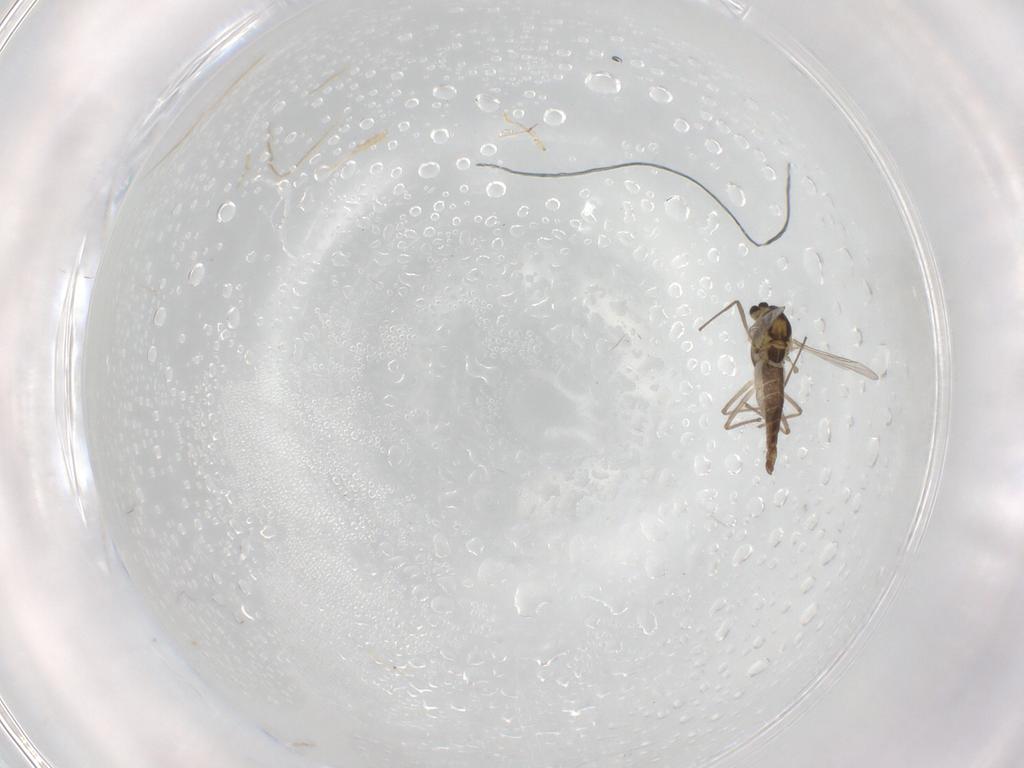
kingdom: Animalia
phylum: Arthropoda
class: Insecta
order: Diptera
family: Chironomidae
